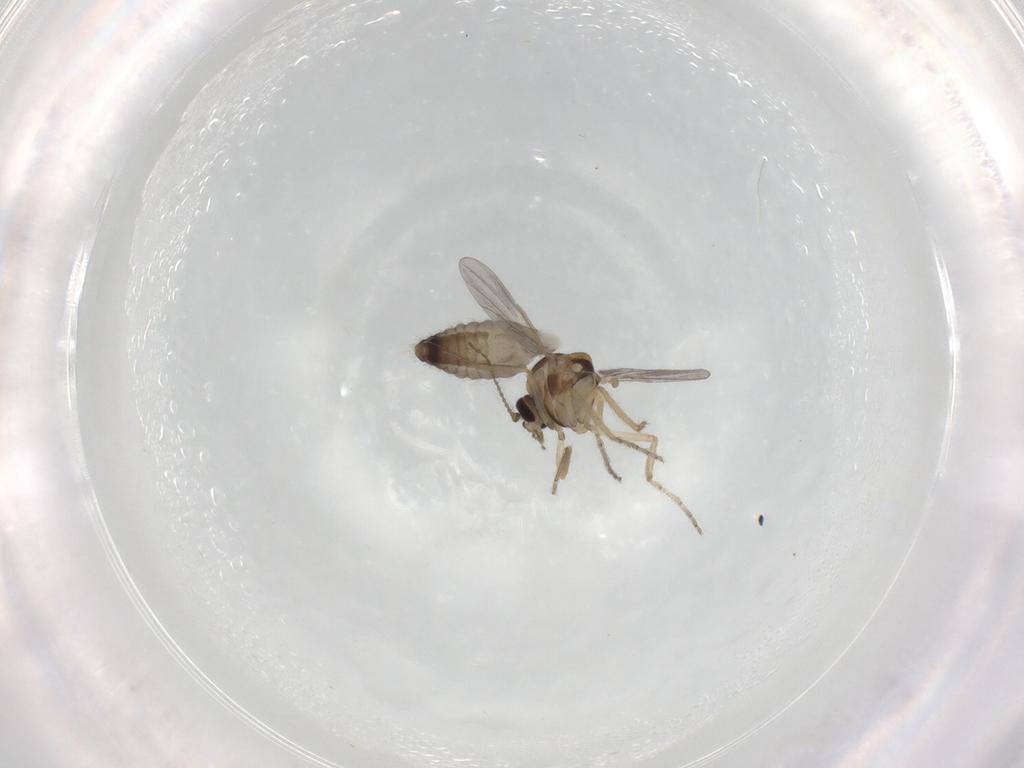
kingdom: Animalia
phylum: Arthropoda
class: Insecta
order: Diptera
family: Ceratopogonidae
